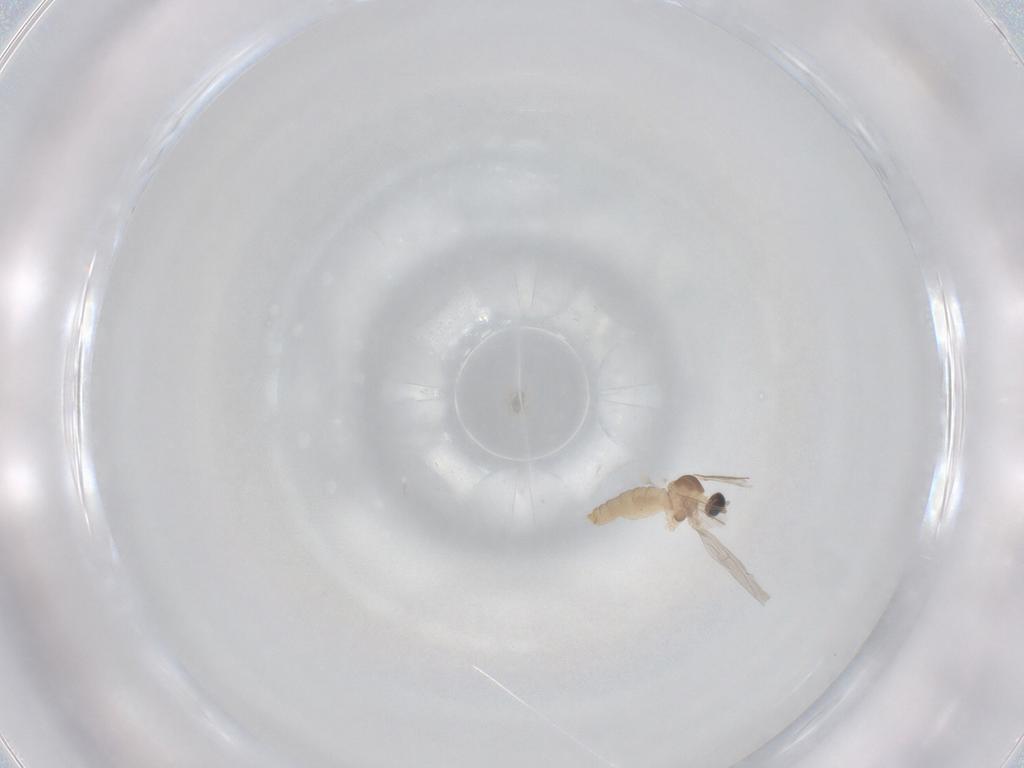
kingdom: Animalia
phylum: Arthropoda
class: Insecta
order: Diptera
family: Cecidomyiidae
